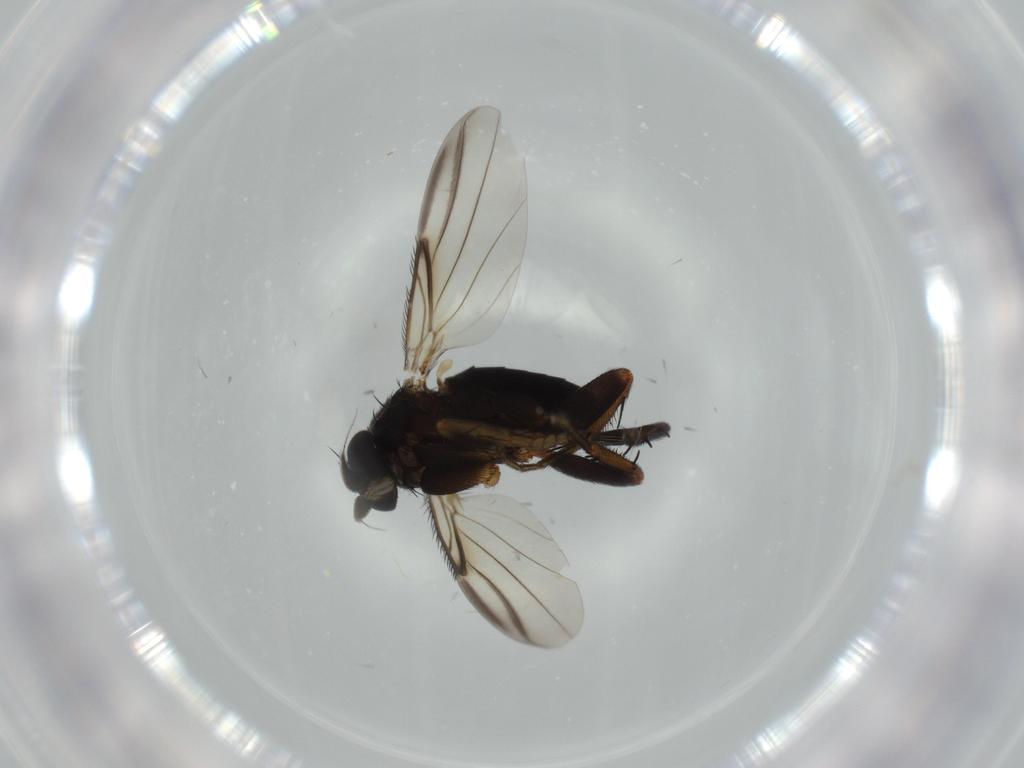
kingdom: Animalia
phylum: Arthropoda
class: Insecta
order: Diptera
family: Phoridae
